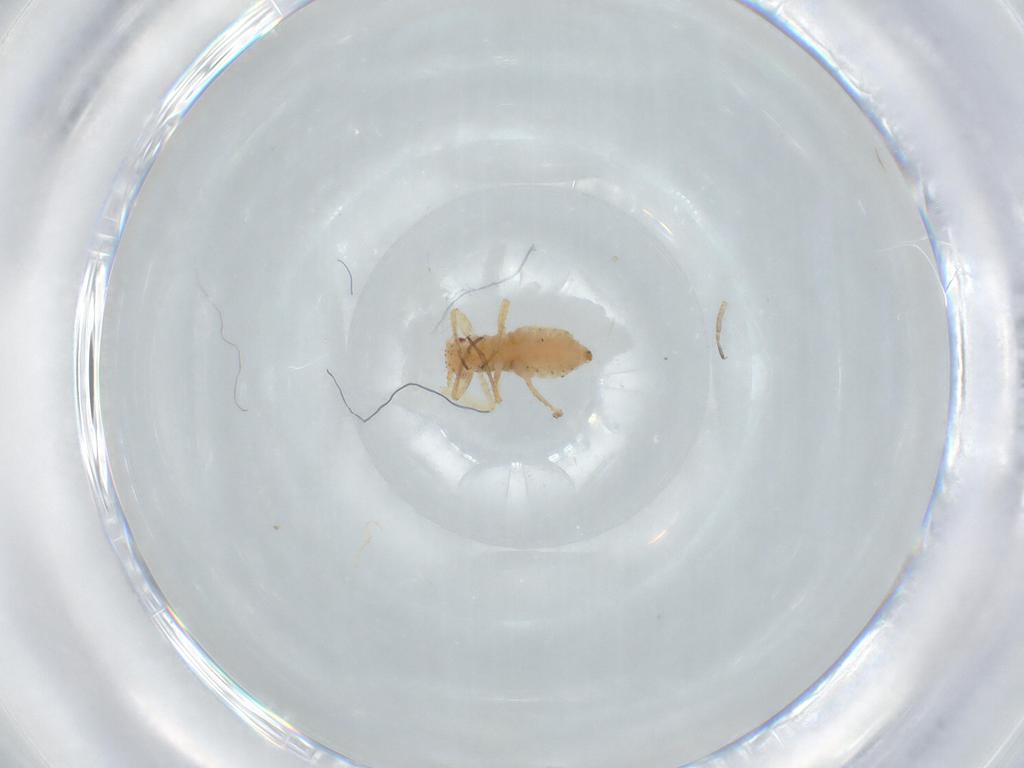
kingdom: Animalia
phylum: Arthropoda
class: Insecta
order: Hemiptera
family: Aphididae
